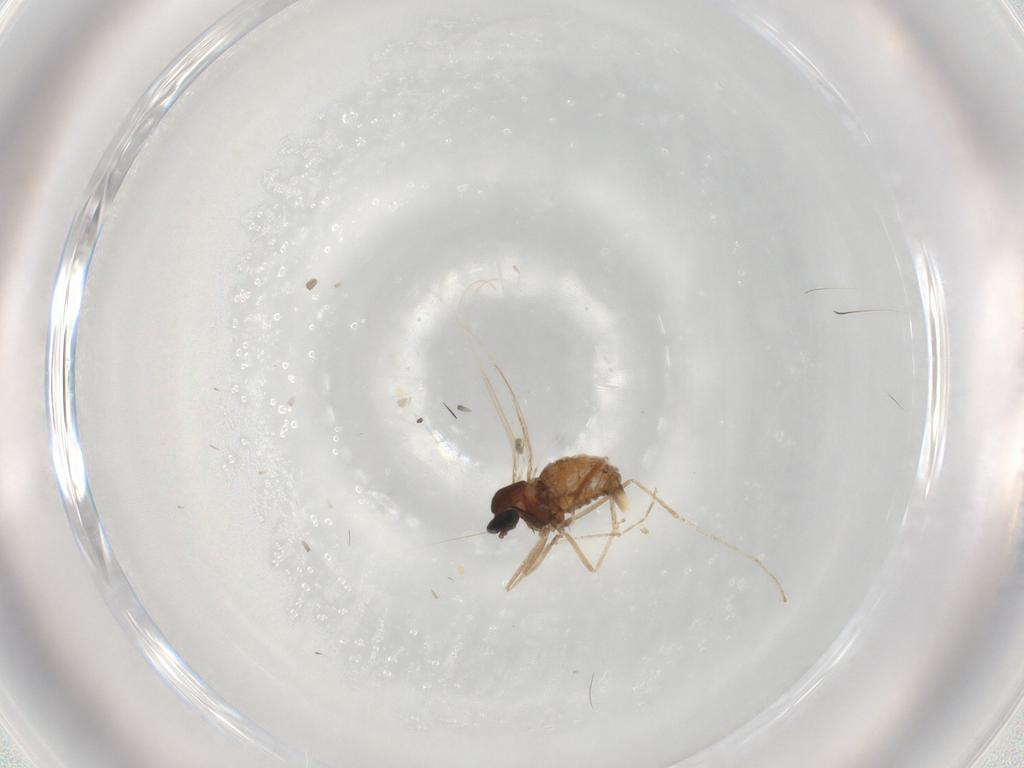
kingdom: Animalia
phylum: Arthropoda
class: Insecta
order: Diptera
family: Cecidomyiidae
